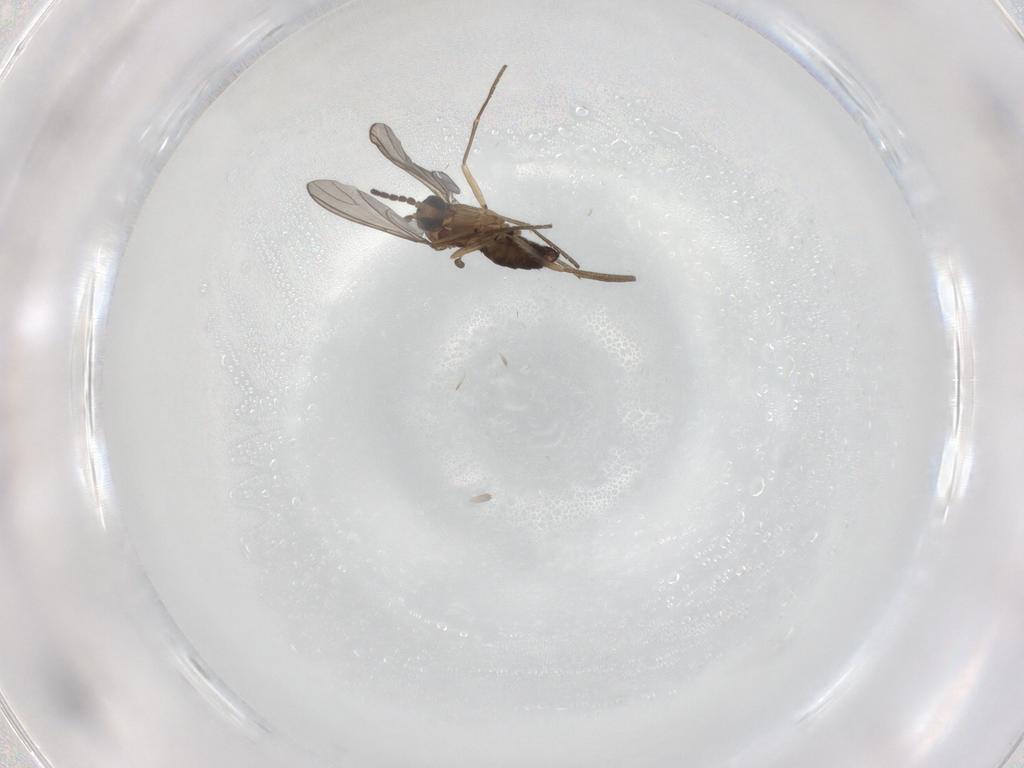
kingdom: Animalia
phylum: Arthropoda
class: Insecta
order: Diptera
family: Sciaridae
